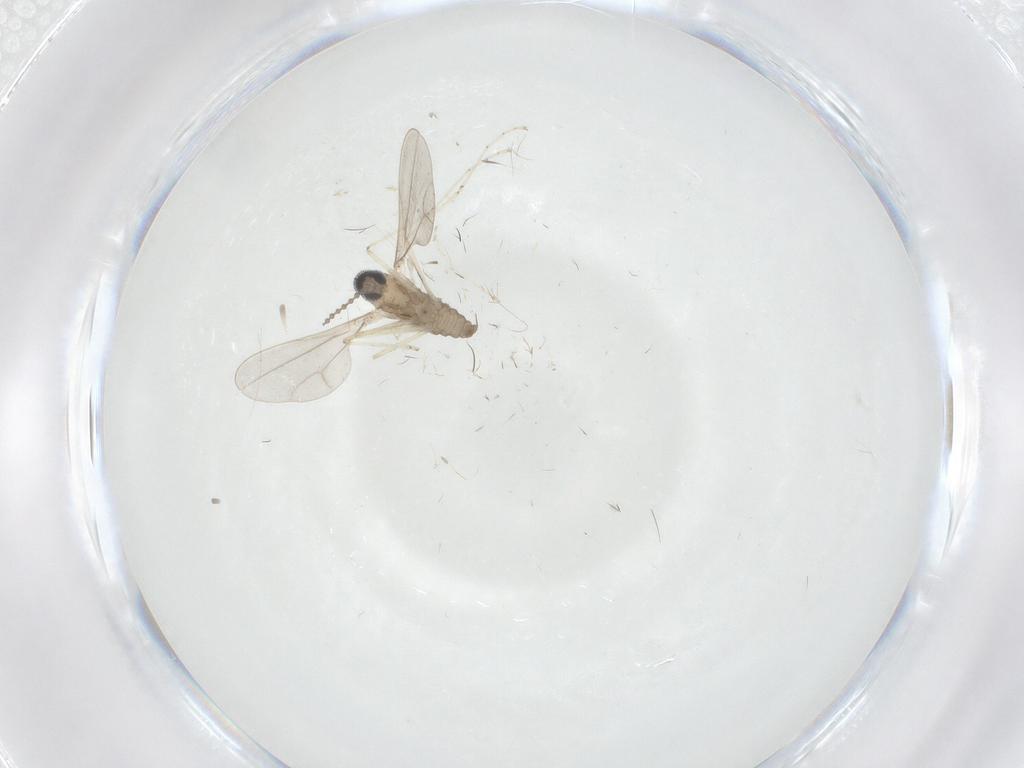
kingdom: Animalia
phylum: Arthropoda
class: Insecta
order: Diptera
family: Cecidomyiidae
